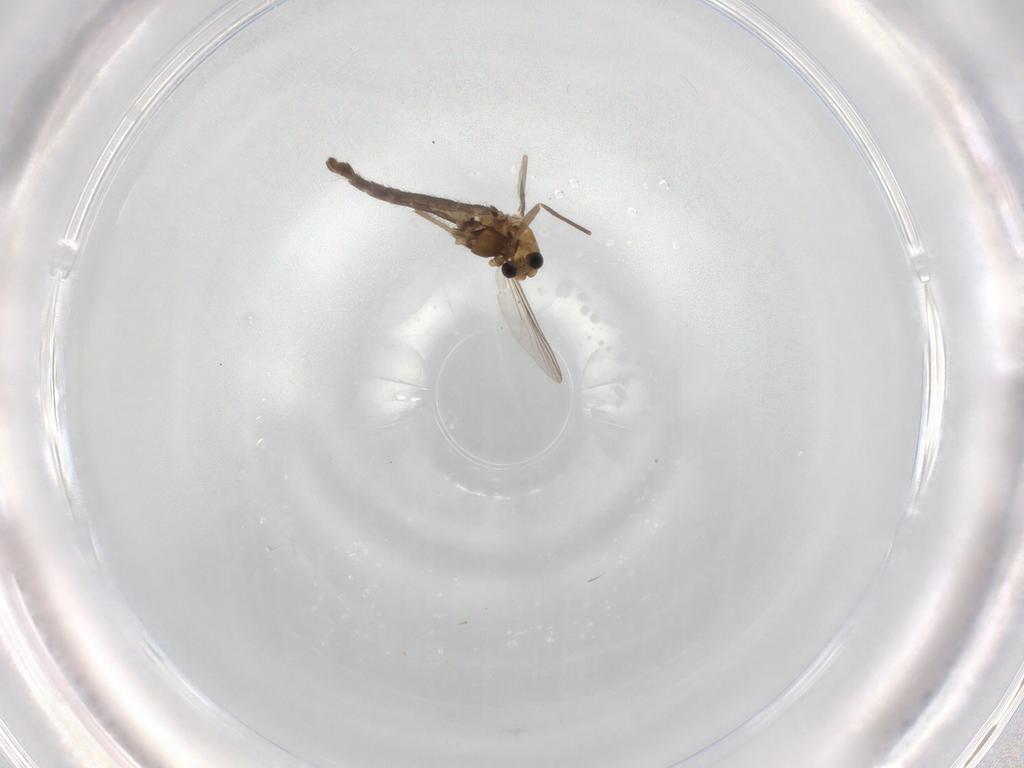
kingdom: Animalia
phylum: Arthropoda
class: Insecta
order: Diptera
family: Chironomidae
